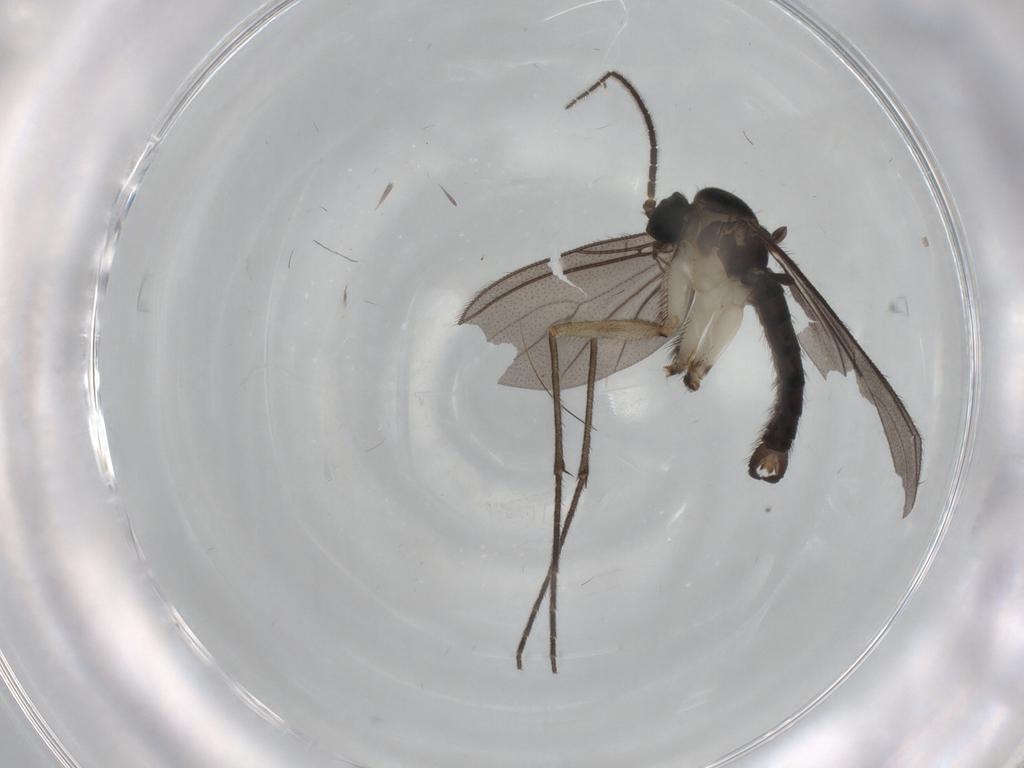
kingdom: Animalia
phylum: Arthropoda
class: Insecta
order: Diptera
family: Sciaridae
